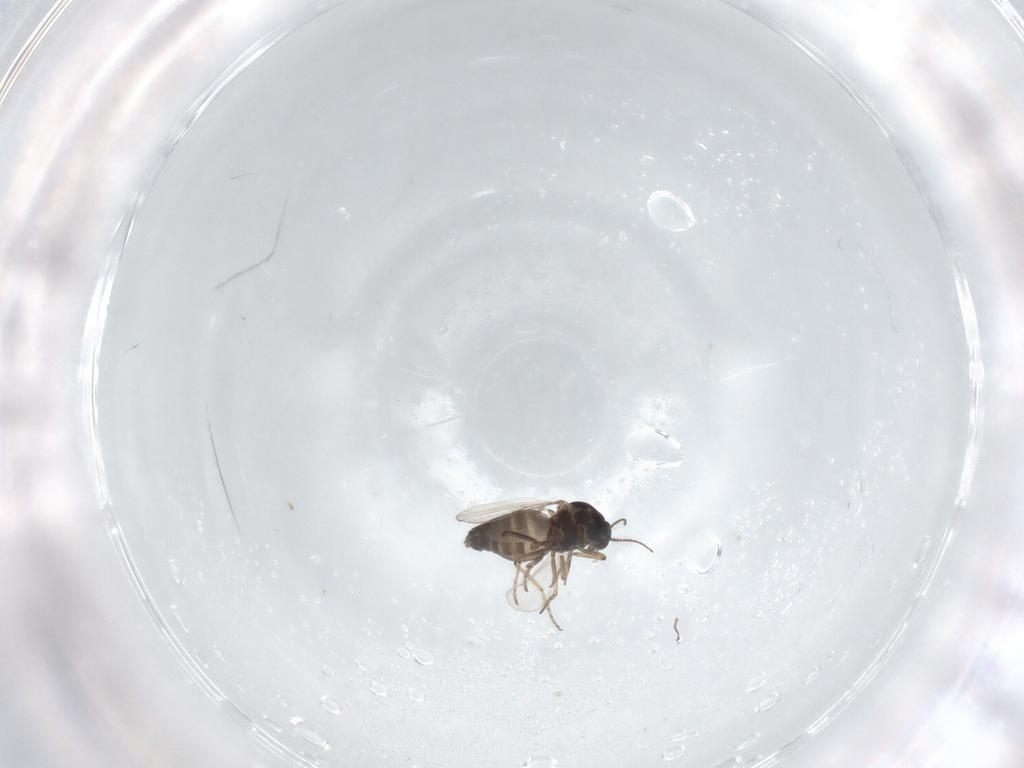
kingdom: Animalia
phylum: Arthropoda
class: Insecta
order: Diptera
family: Ceratopogonidae
